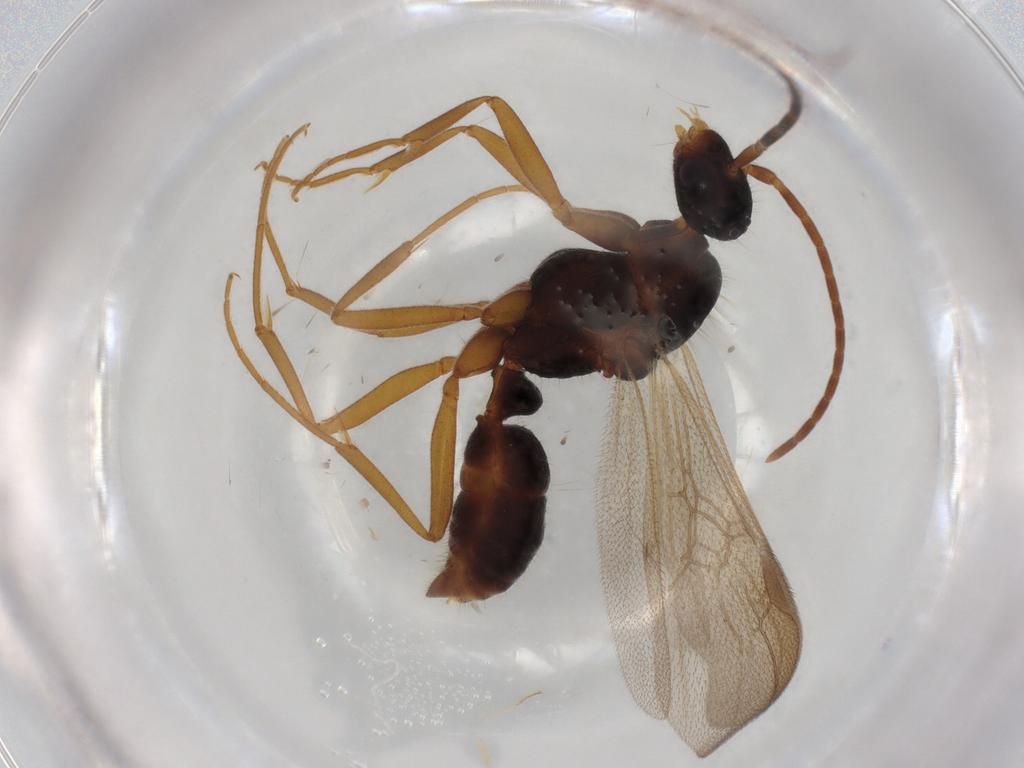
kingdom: Animalia
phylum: Arthropoda
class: Insecta
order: Hymenoptera
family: Formicidae
